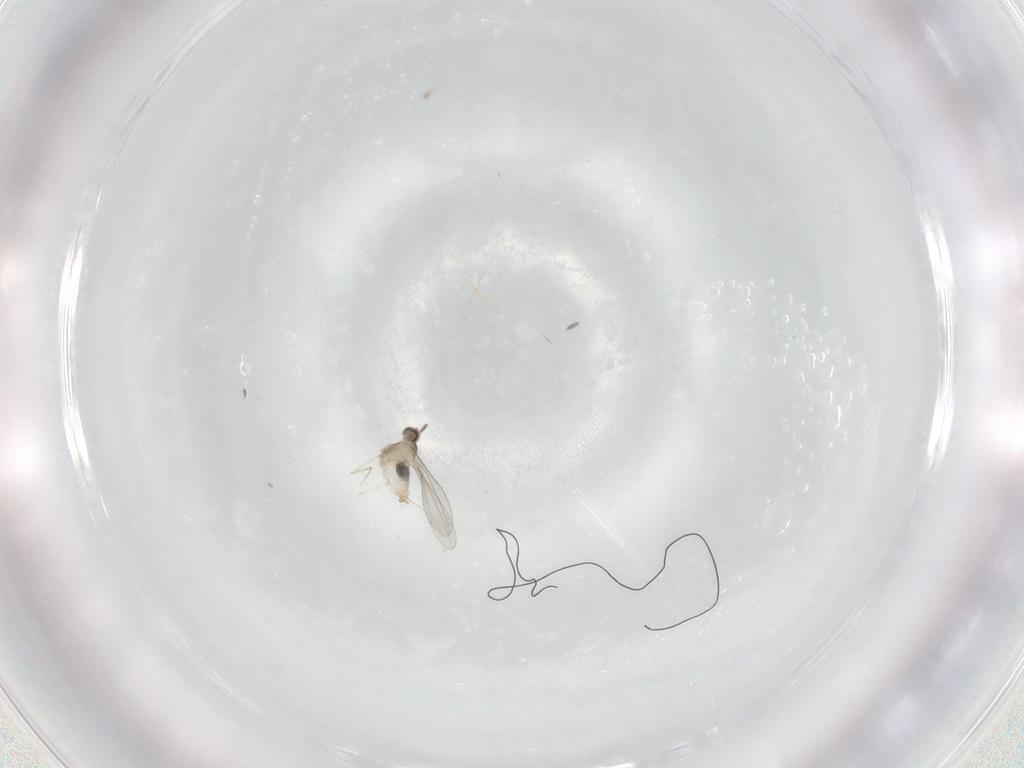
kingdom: Animalia
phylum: Arthropoda
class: Insecta
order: Diptera
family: Cecidomyiidae
